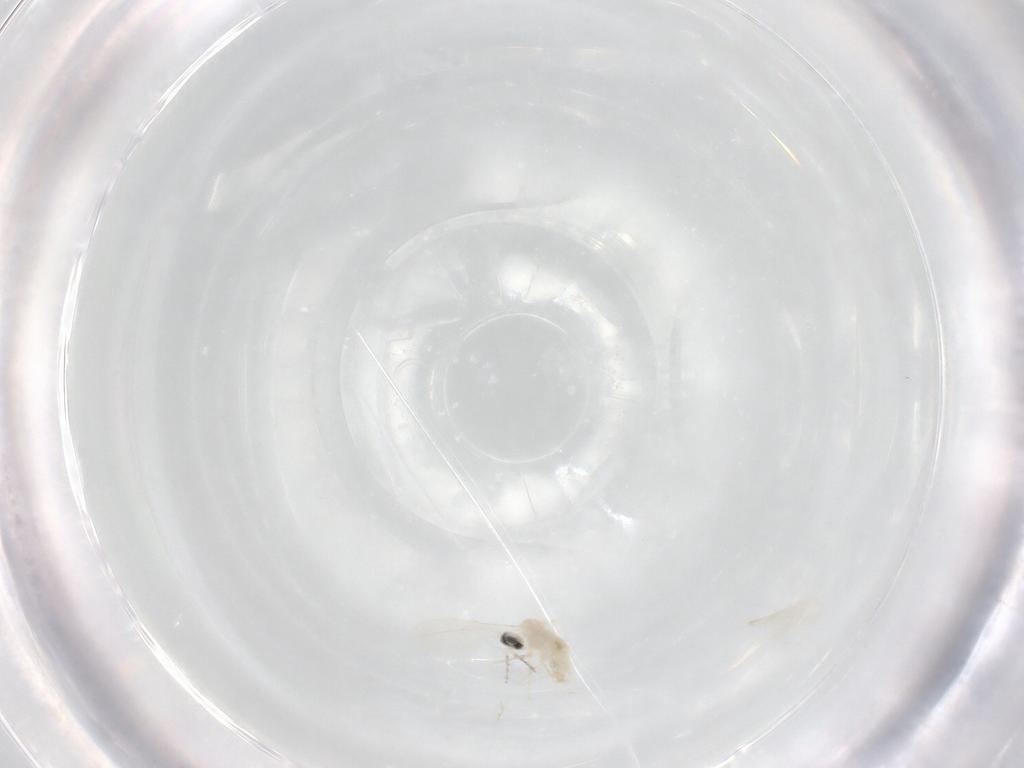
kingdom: Animalia
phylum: Arthropoda
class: Insecta
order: Diptera
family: Cecidomyiidae
